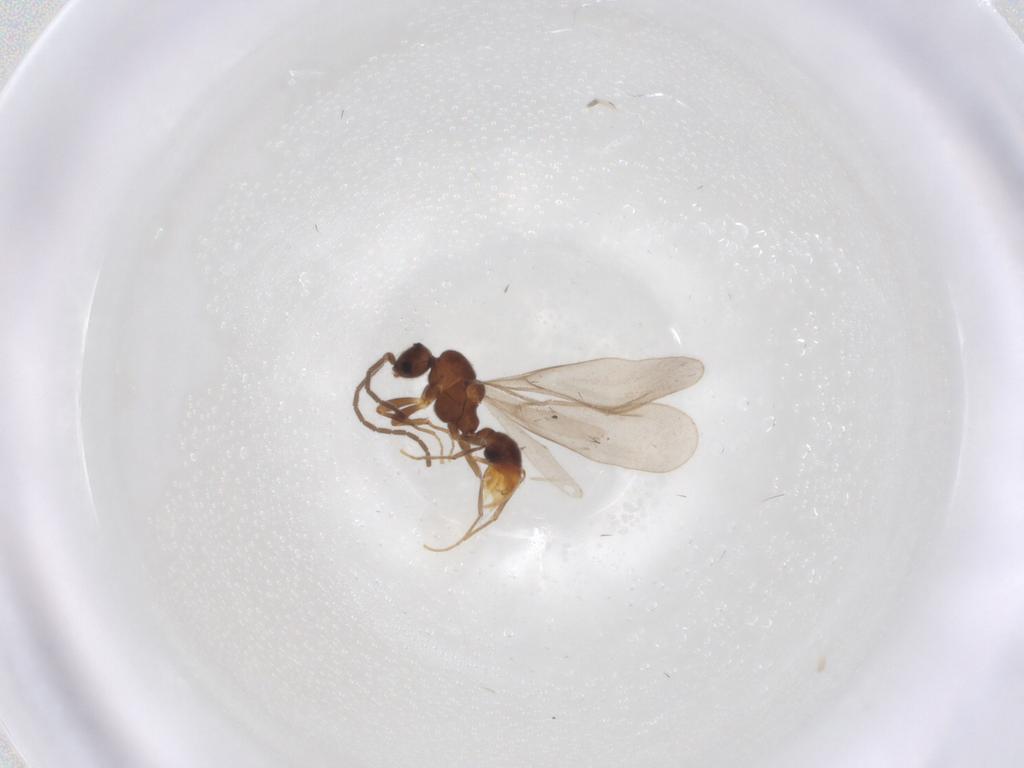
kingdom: Animalia
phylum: Arthropoda
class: Insecta
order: Hymenoptera
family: Formicidae
